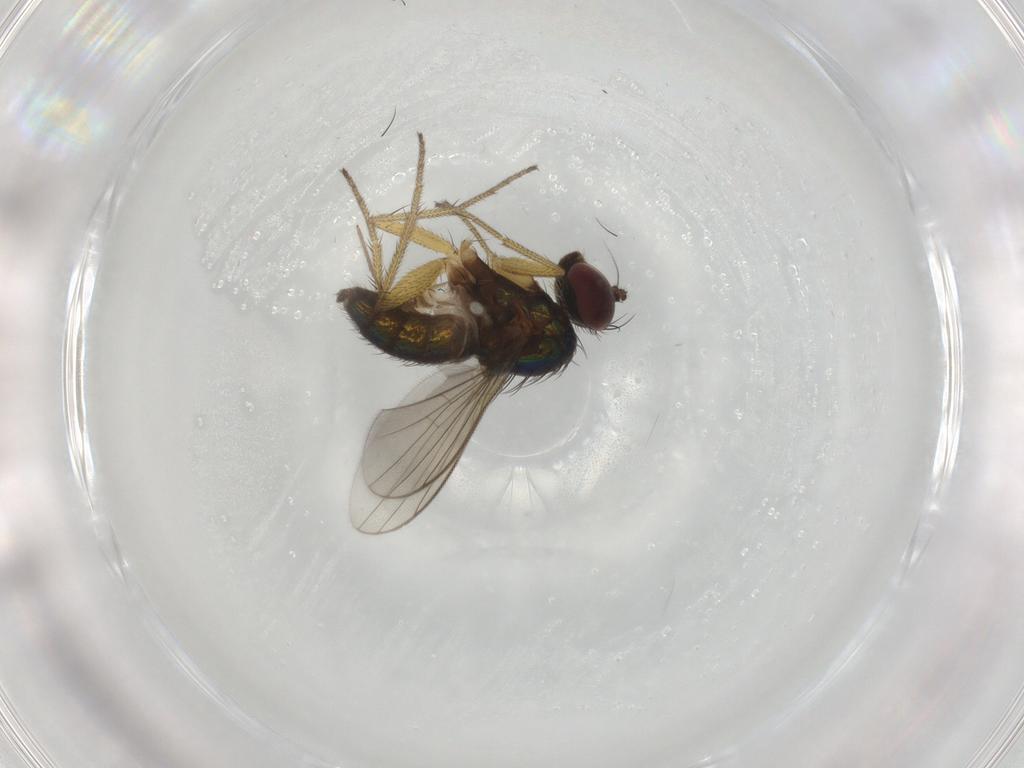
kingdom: Animalia
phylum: Arthropoda
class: Insecta
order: Diptera
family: Dolichopodidae
